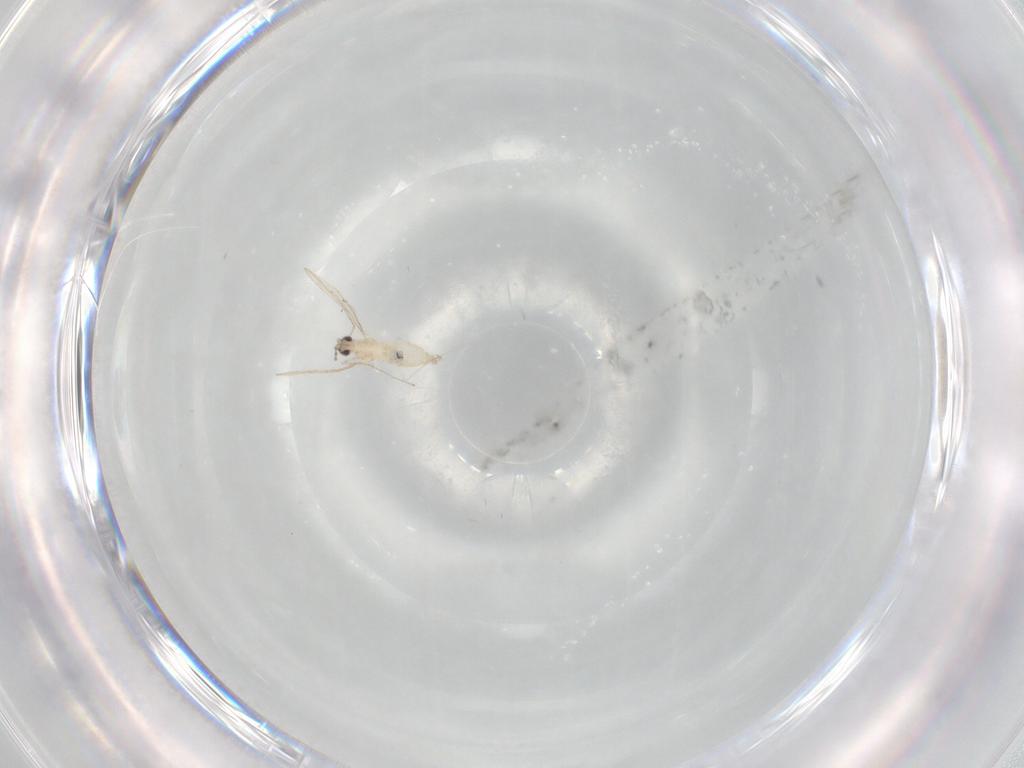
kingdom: Animalia
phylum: Arthropoda
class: Insecta
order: Diptera
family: Cecidomyiidae
